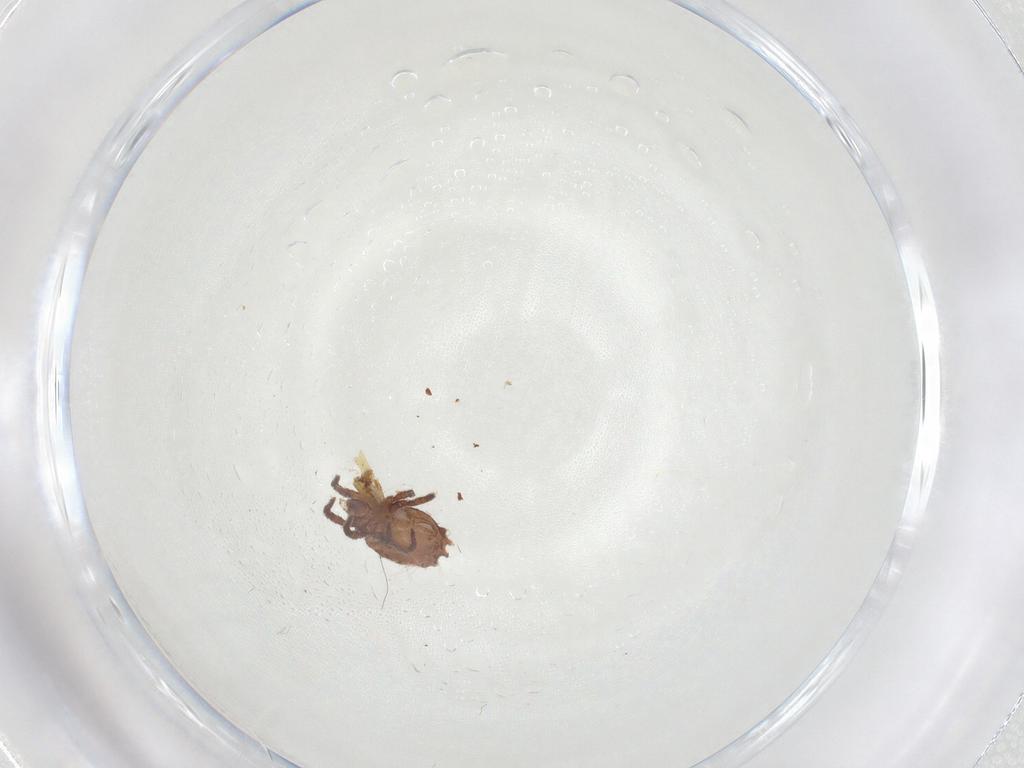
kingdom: Animalia
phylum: Arthropoda
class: Arachnida
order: Sarcoptiformes
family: Crotoniidae
